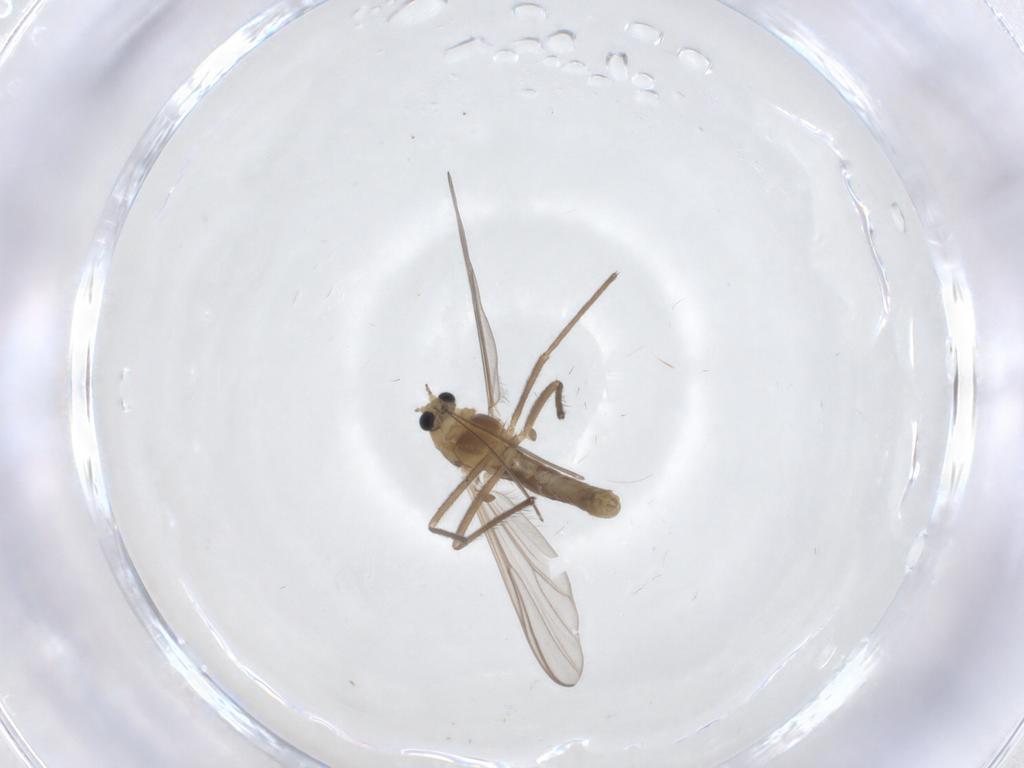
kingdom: Animalia
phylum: Arthropoda
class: Insecta
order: Diptera
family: Chironomidae
